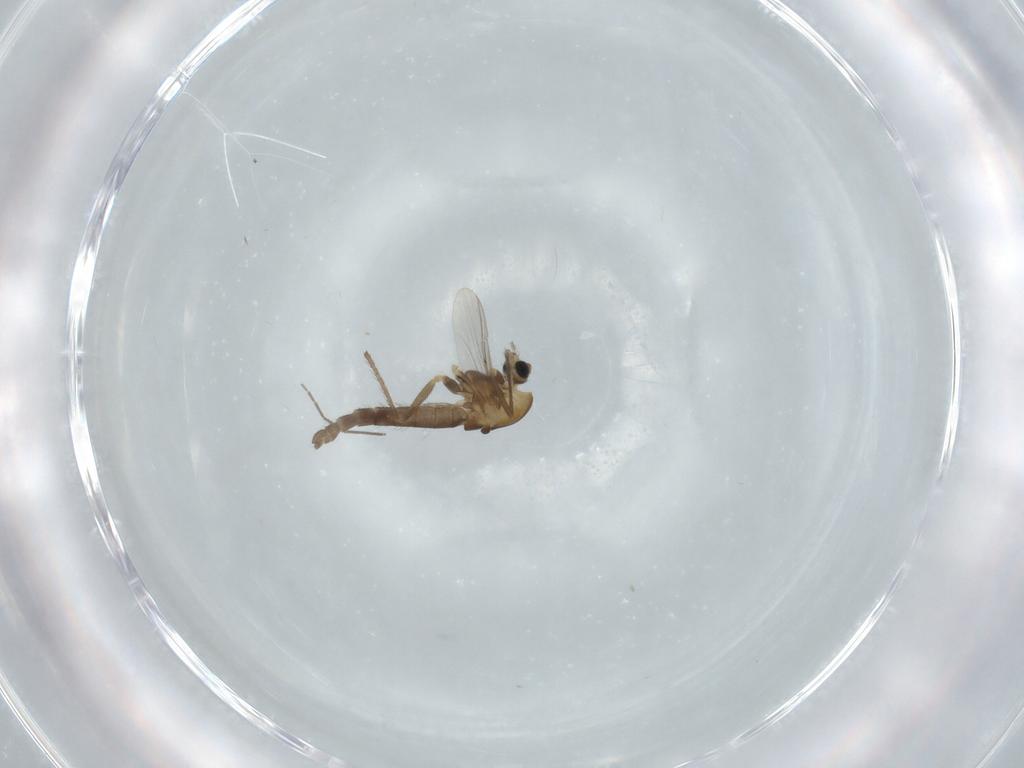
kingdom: Animalia
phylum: Arthropoda
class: Insecta
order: Diptera
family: Chironomidae
